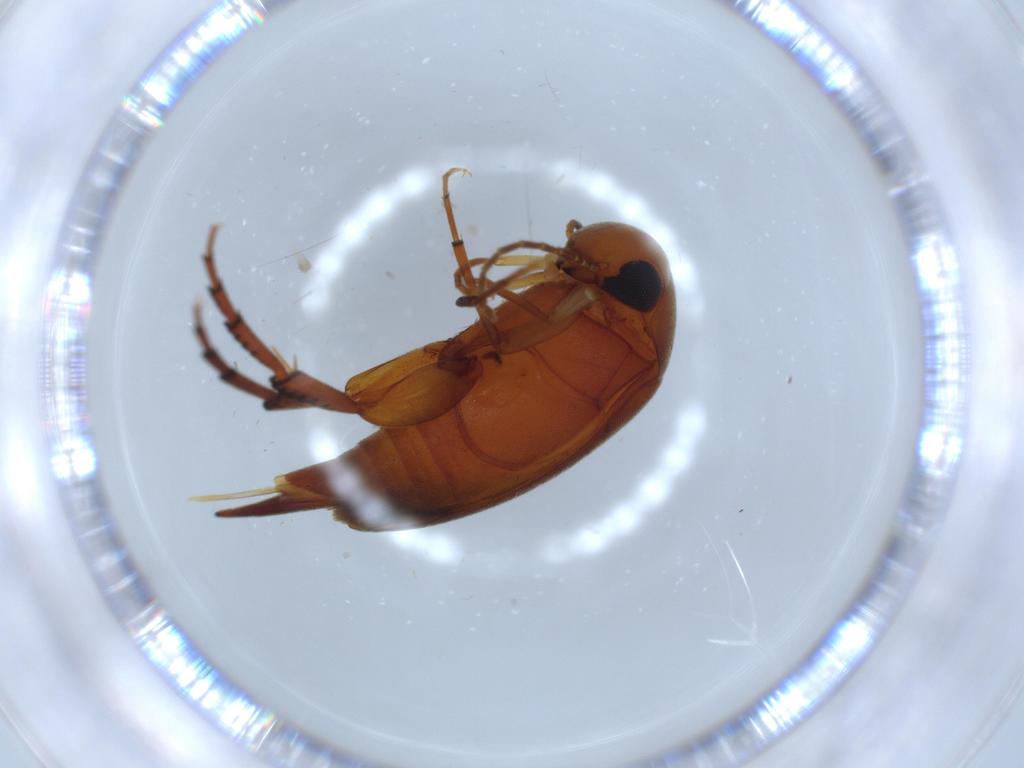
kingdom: Animalia
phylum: Arthropoda
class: Insecta
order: Coleoptera
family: Mordellidae
